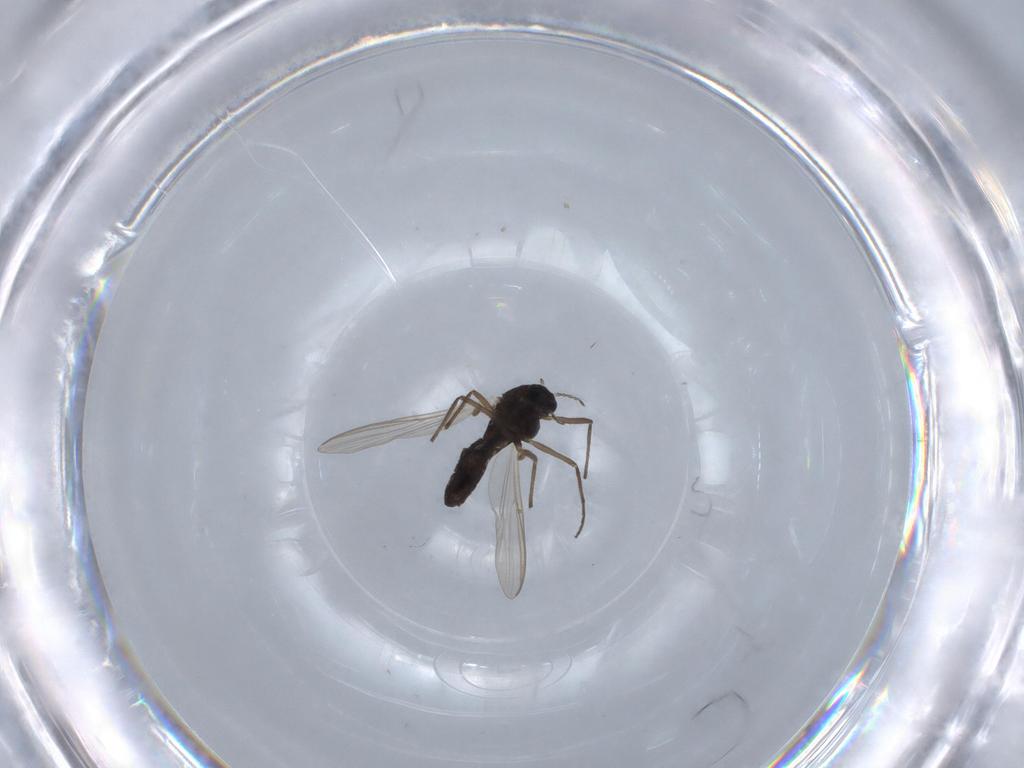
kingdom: Animalia
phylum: Arthropoda
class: Insecta
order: Diptera
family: Chironomidae
